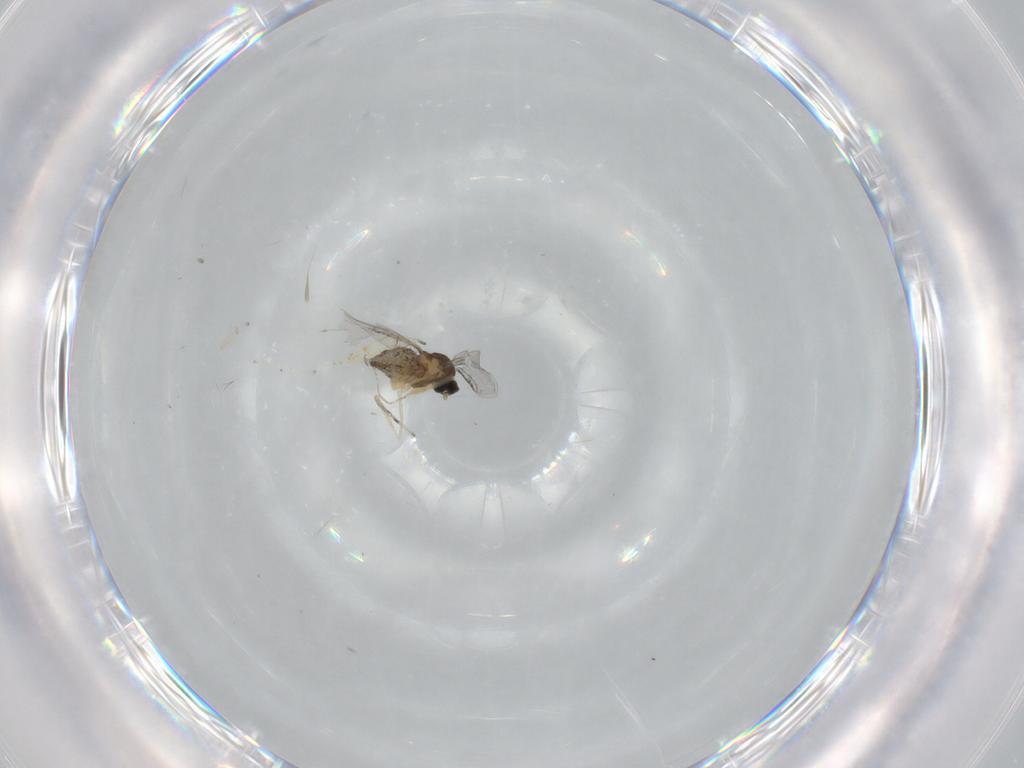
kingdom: Animalia
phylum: Arthropoda
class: Insecta
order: Diptera
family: Cecidomyiidae
